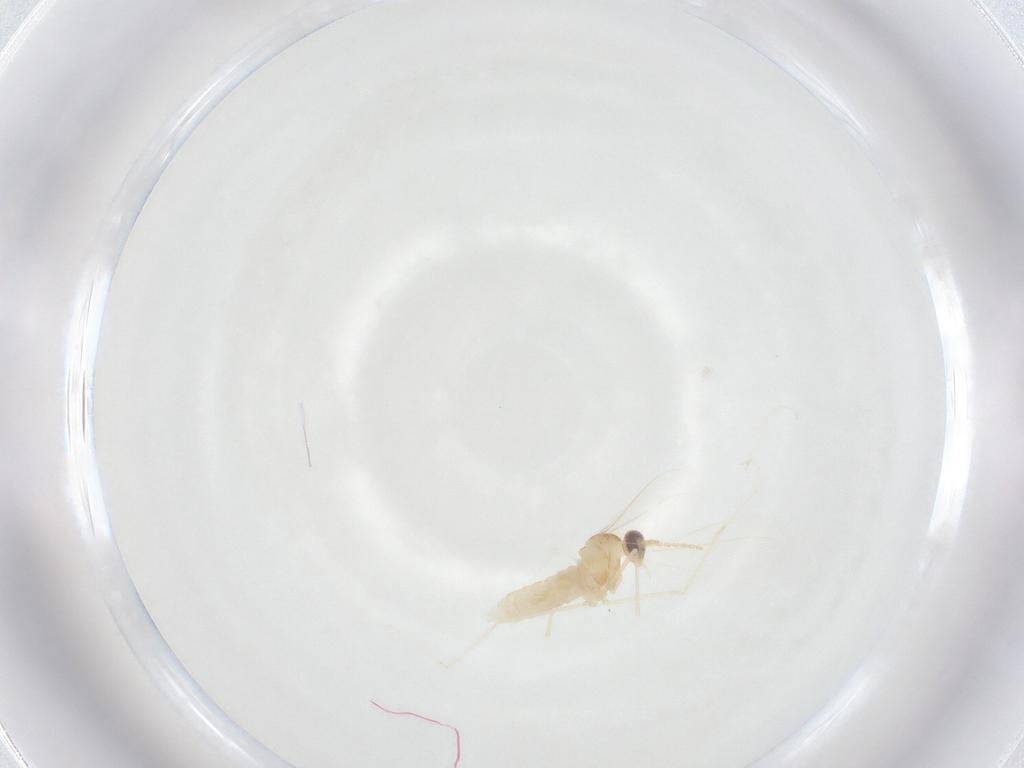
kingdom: Animalia
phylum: Arthropoda
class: Insecta
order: Diptera
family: Cecidomyiidae
